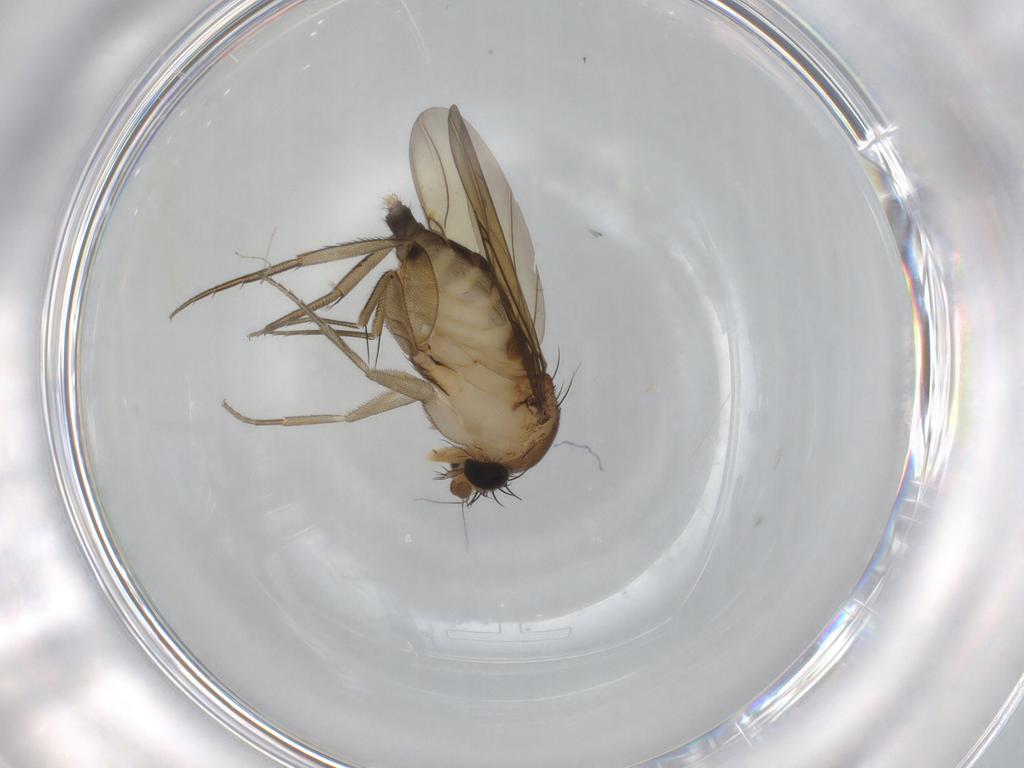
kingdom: Animalia
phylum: Arthropoda
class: Insecta
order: Diptera
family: Phoridae
